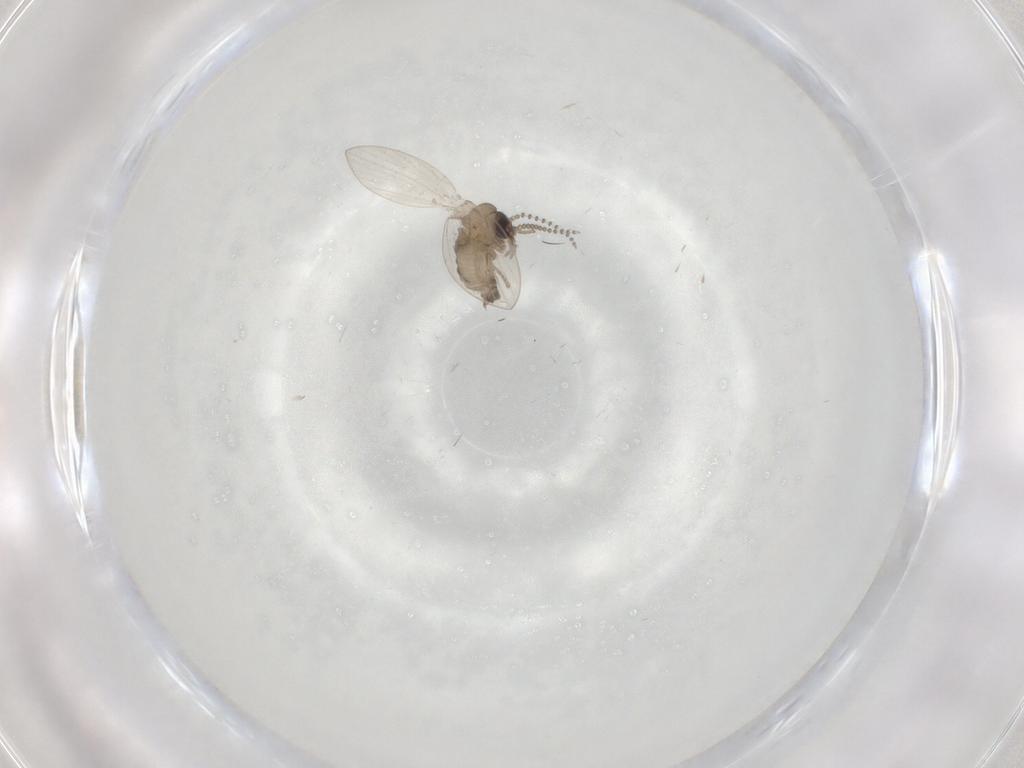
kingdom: Animalia
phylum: Arthropoda
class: Insecta
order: Diptera
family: Psychodidae
